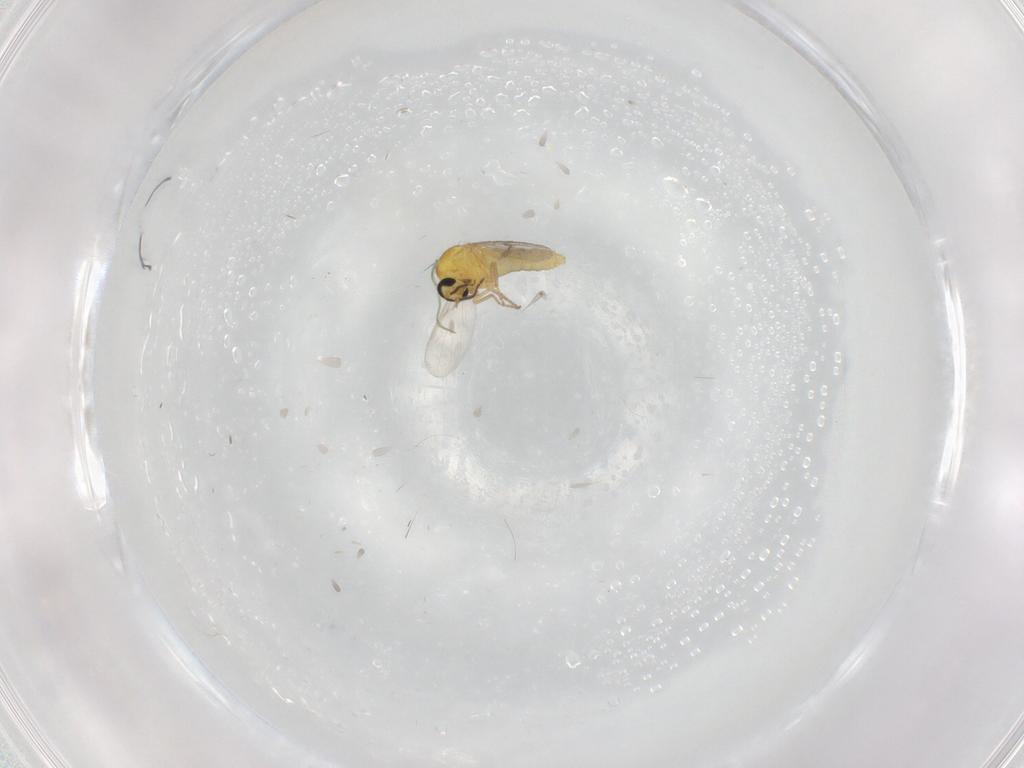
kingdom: Animalia
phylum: Arthropoda
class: Insecta
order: Diptera
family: Ceratopogonidae
